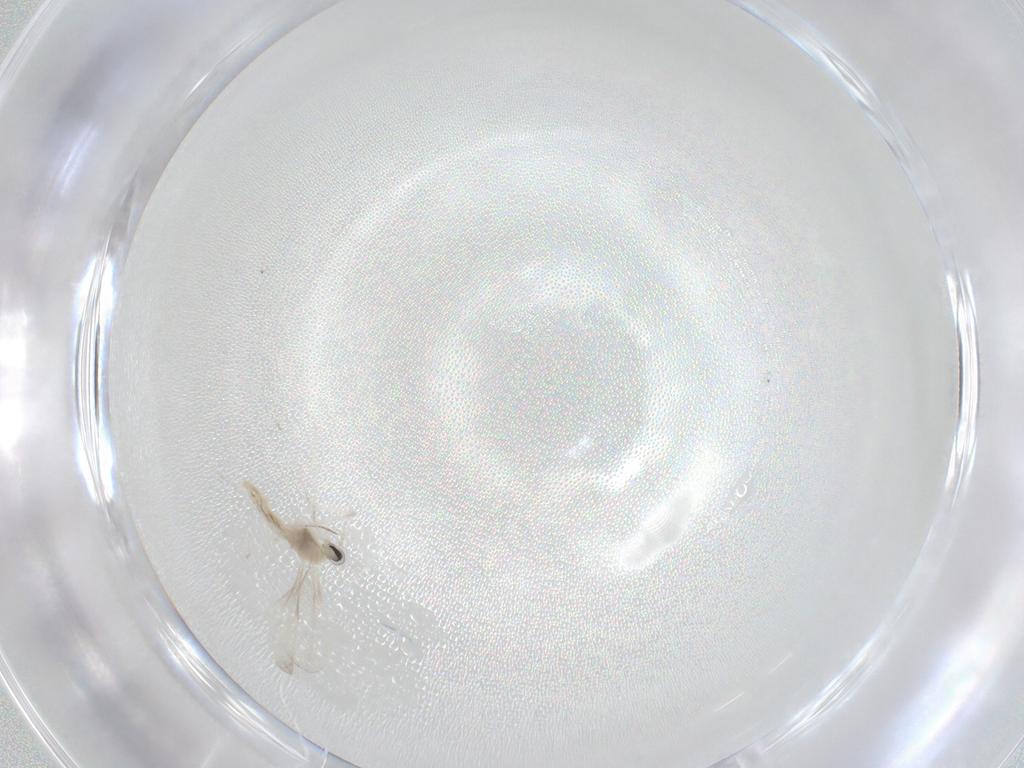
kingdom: Animalia
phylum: Arthropoda
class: Insecta
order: Diptera
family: Cecidomyiidae
